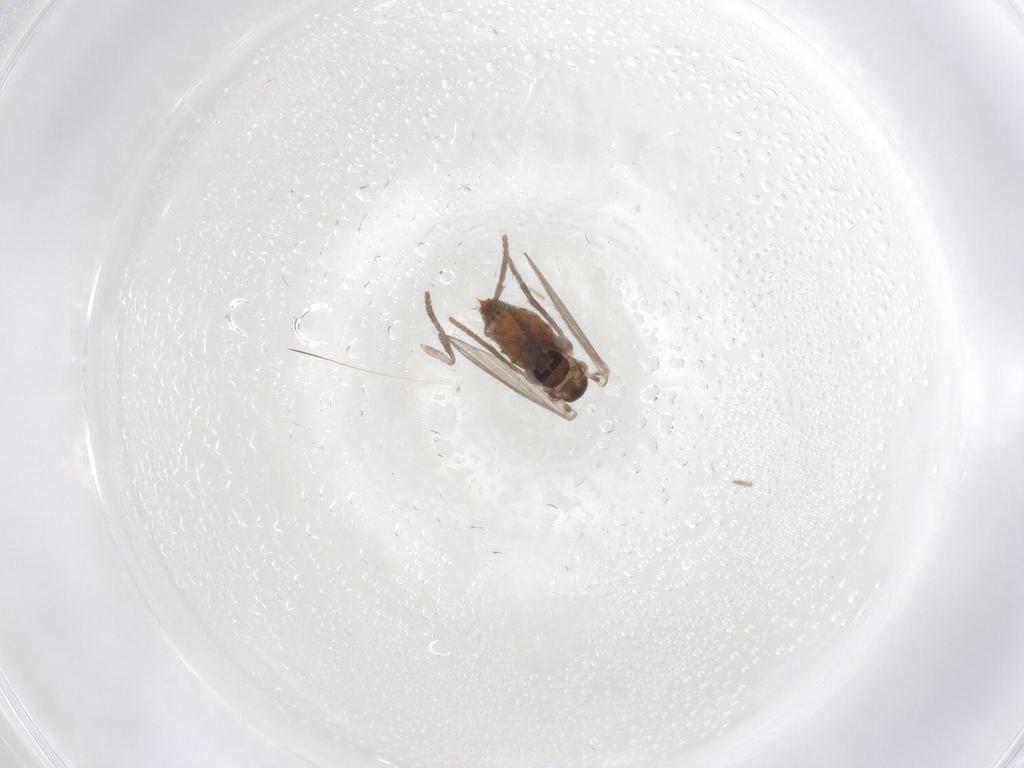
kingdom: Animalia
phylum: Arthropoda
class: Insecta
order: Diptera
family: Psychodidae
